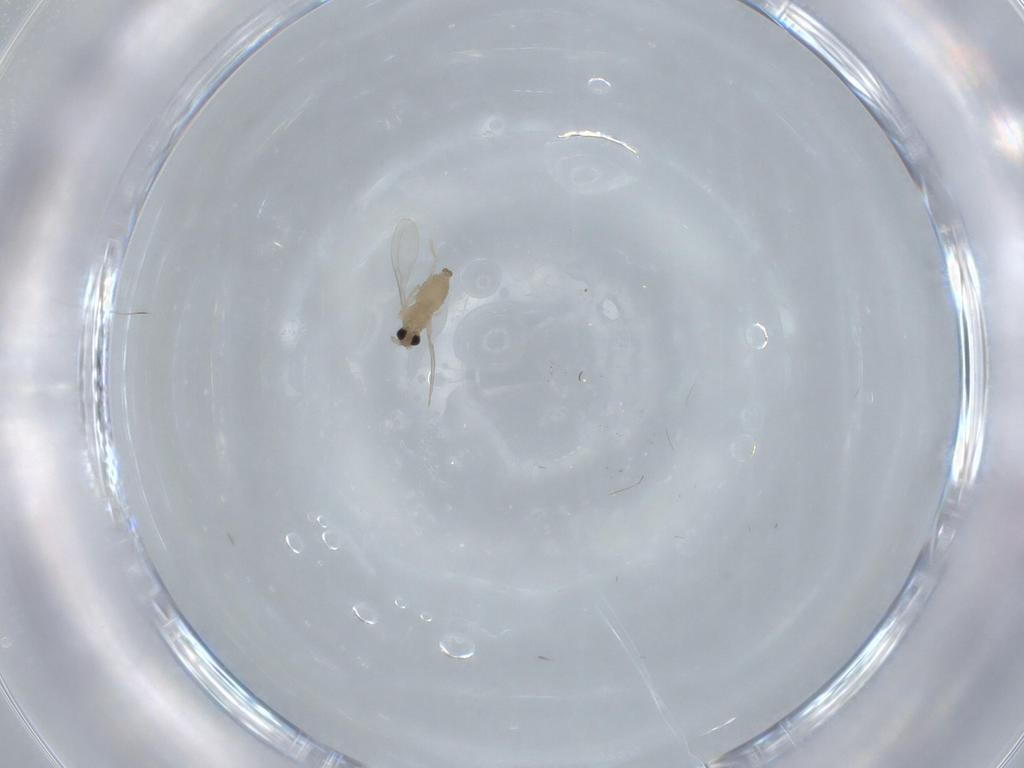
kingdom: Animalia
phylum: Arthropoda
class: Insecta
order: Diptera
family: Cecidomyiidae
